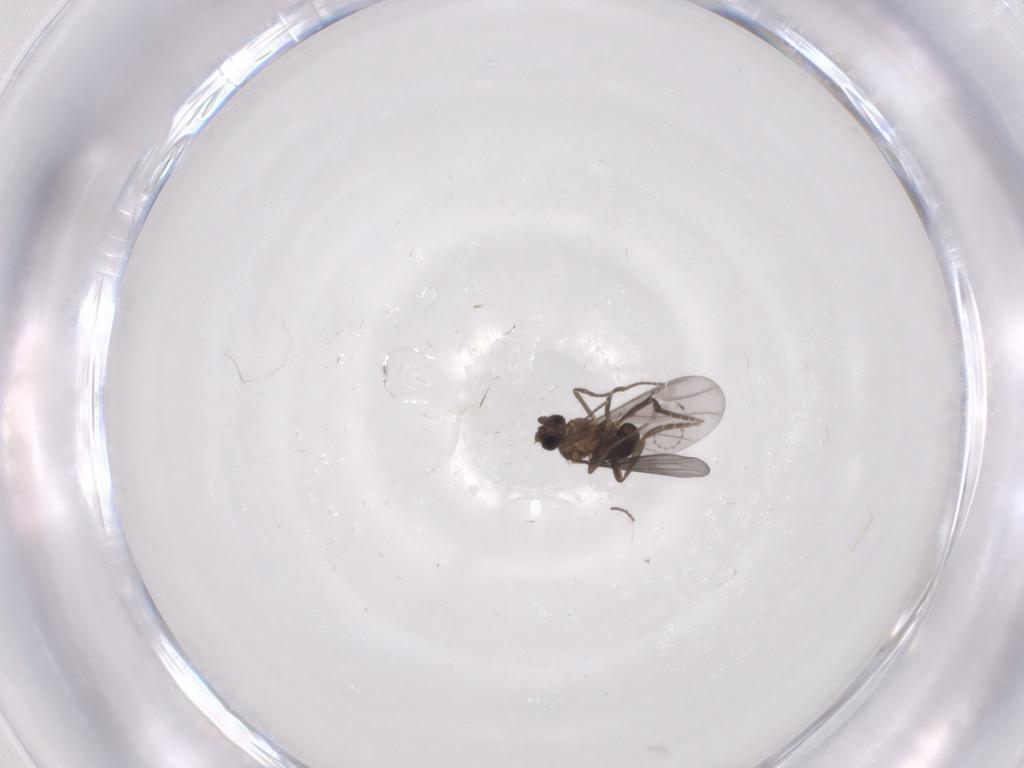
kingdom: Animalia
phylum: Arthropoda
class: Insecta
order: Diptera
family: Cecidomyiidae
